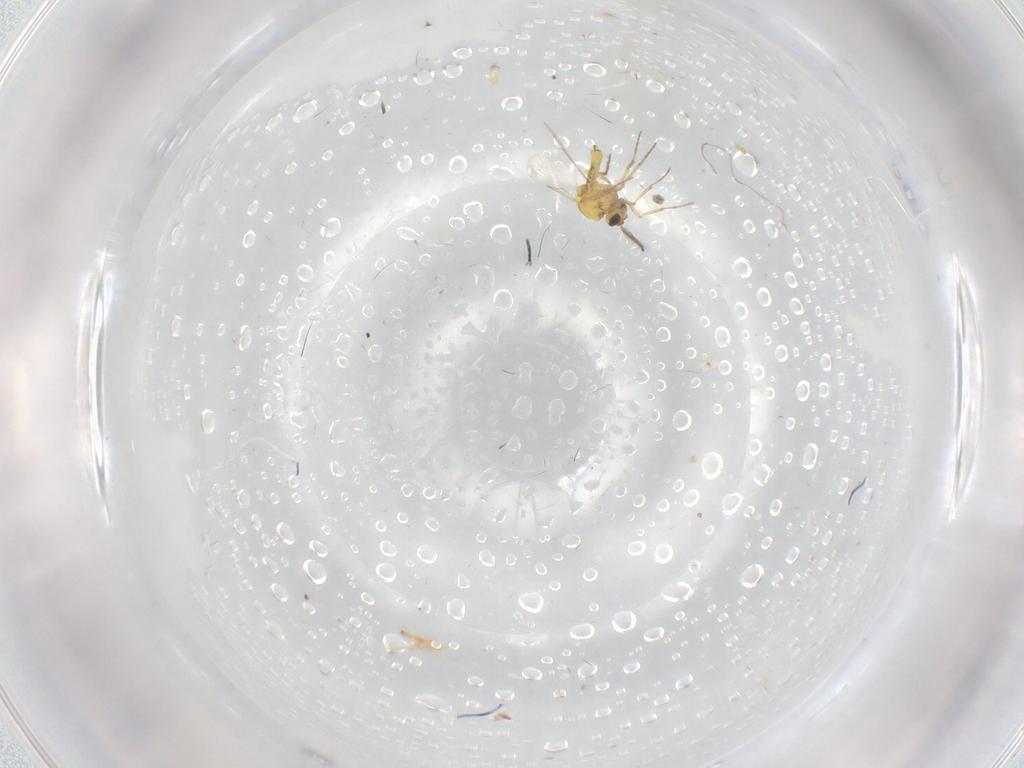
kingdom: Animalia
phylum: Arthropoda
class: Insecta
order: Diptera
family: Ceratopogonidae
